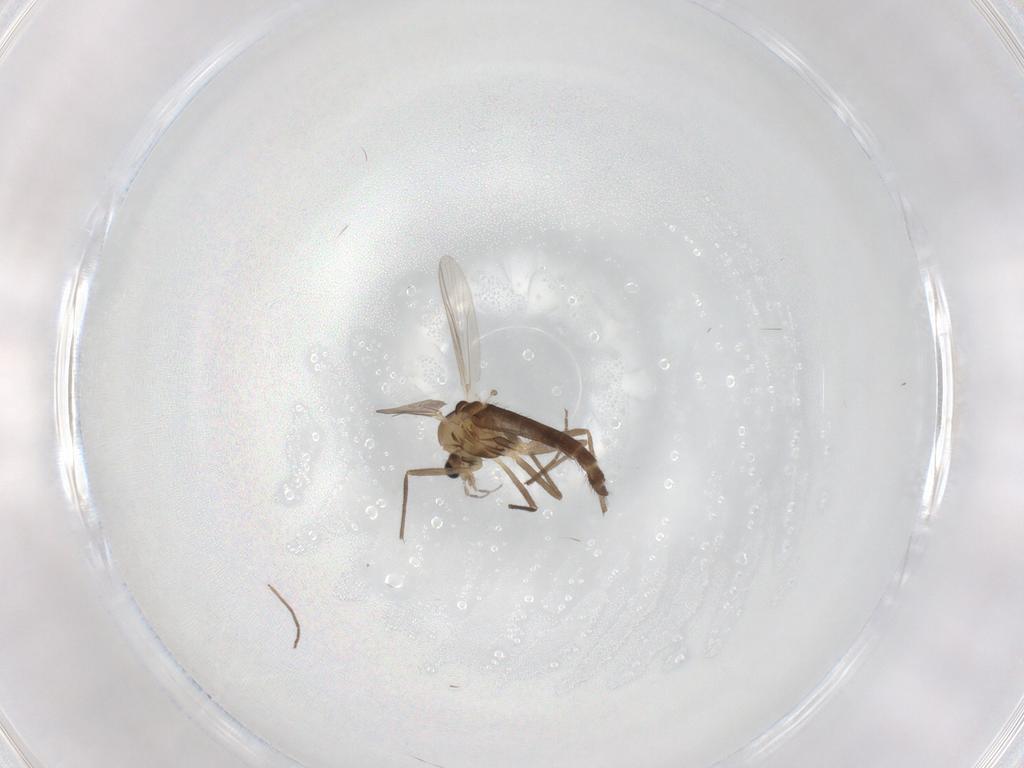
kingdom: Animalia
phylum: Arthropoda
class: Insecta
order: Diptera
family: Chironomidae
